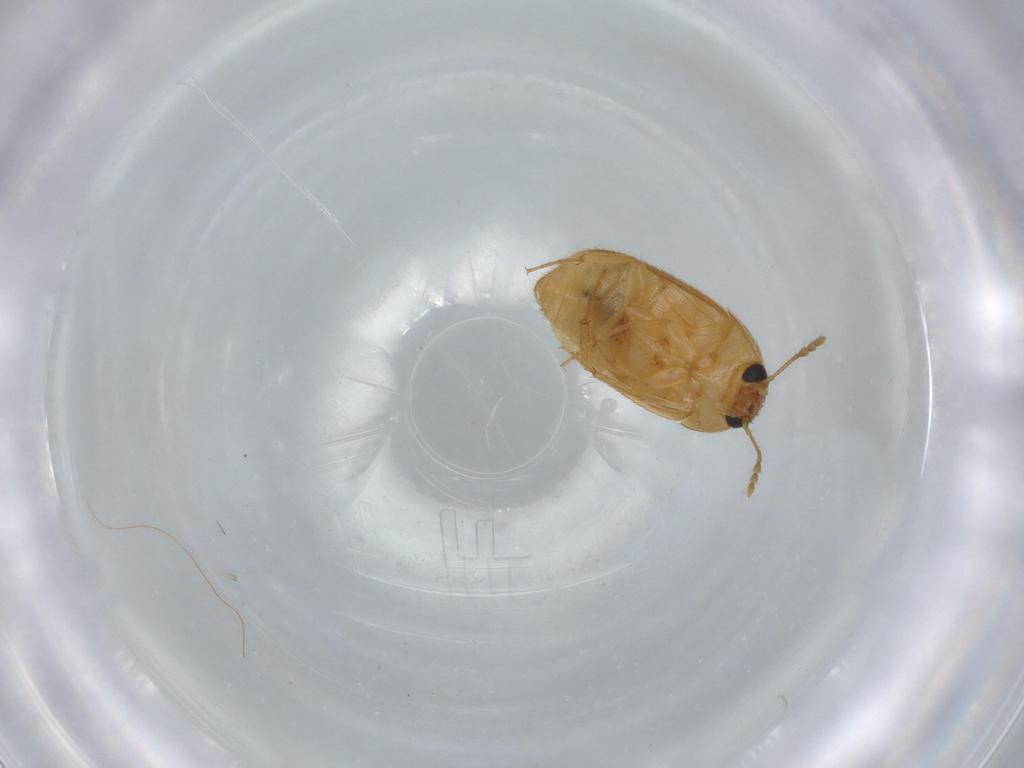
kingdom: Animalia
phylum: Arthropoda
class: Insecta
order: Coleoptera
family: Mycetophagidae
